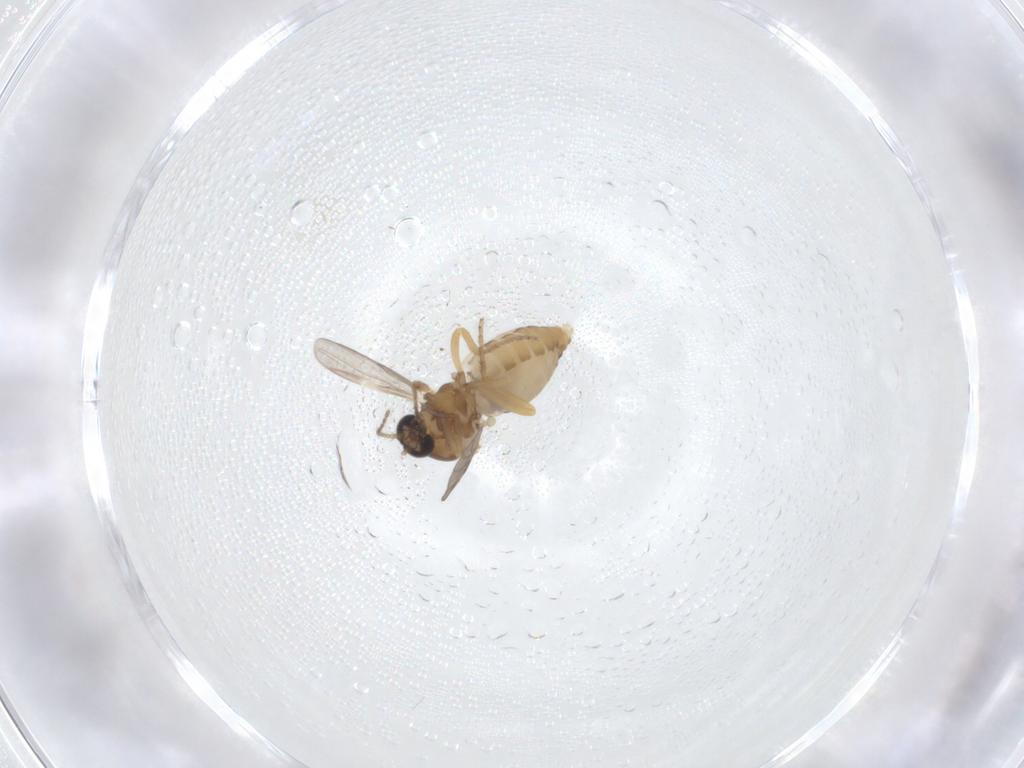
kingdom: Animalia
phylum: Arthropoda
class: Insecta
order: Diptera
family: Ceratopogonidae
